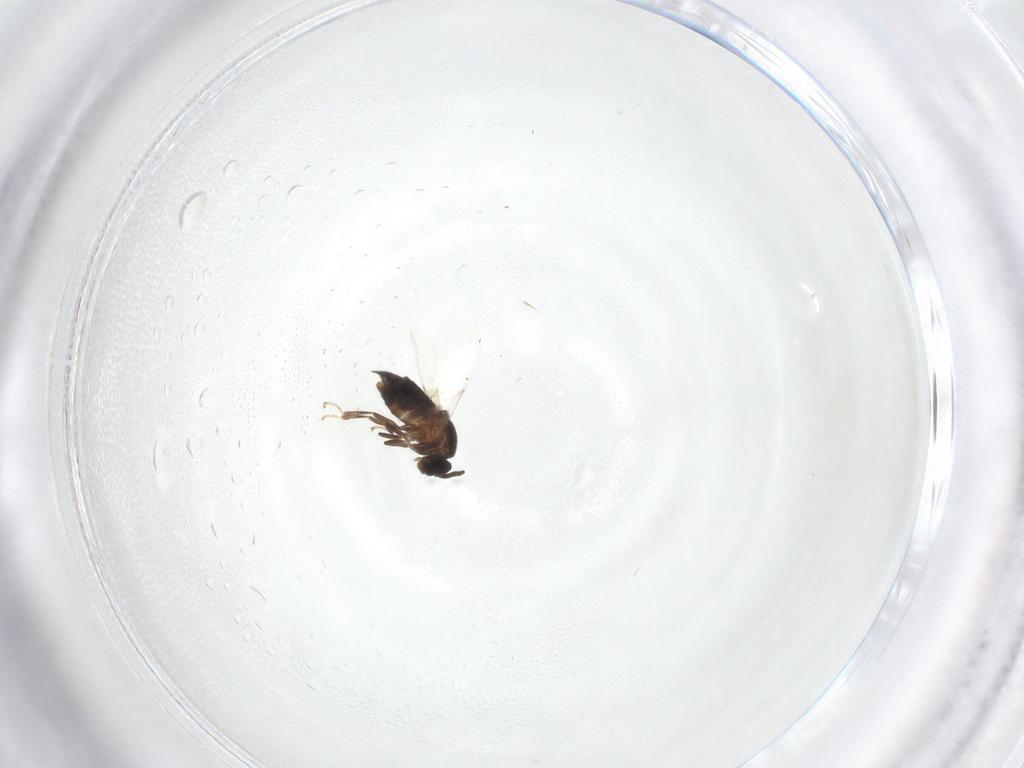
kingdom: Animalia
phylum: Arthropoda
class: Insecta
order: Diptera
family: Scatopsidae
